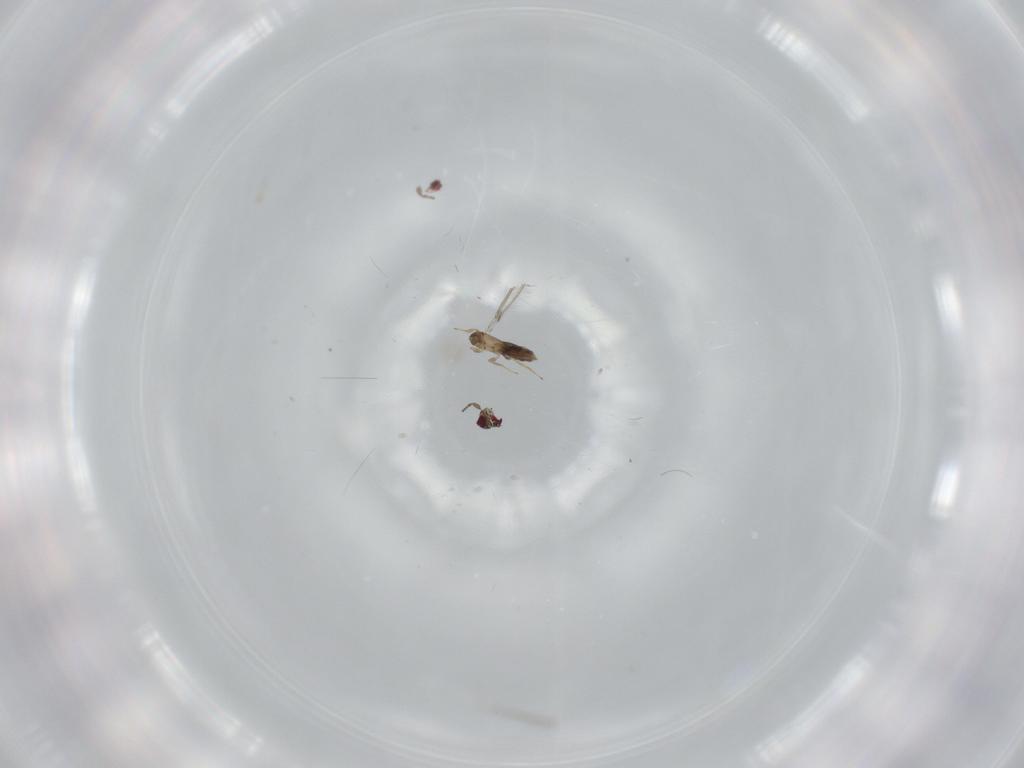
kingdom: Animalia
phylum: Arthropoda
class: Insecta
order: Hymenoptera
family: Mymaridae
